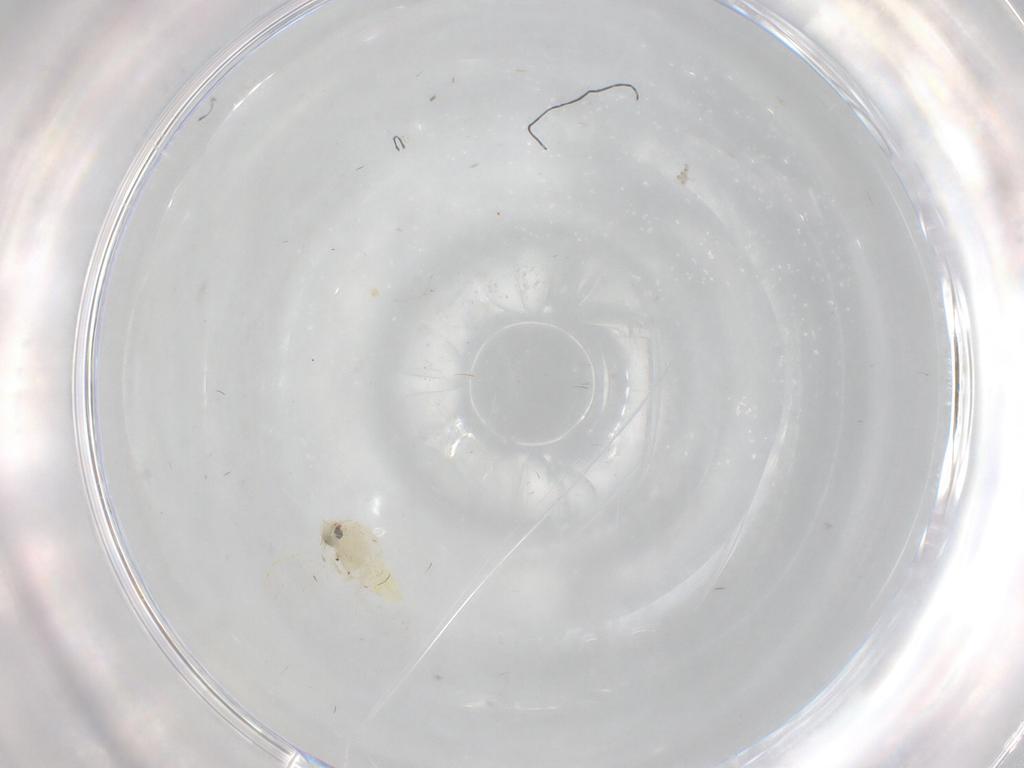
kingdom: Animalia
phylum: Arthropoda
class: Insecta
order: Hemiptera
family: Aleyrodidae
